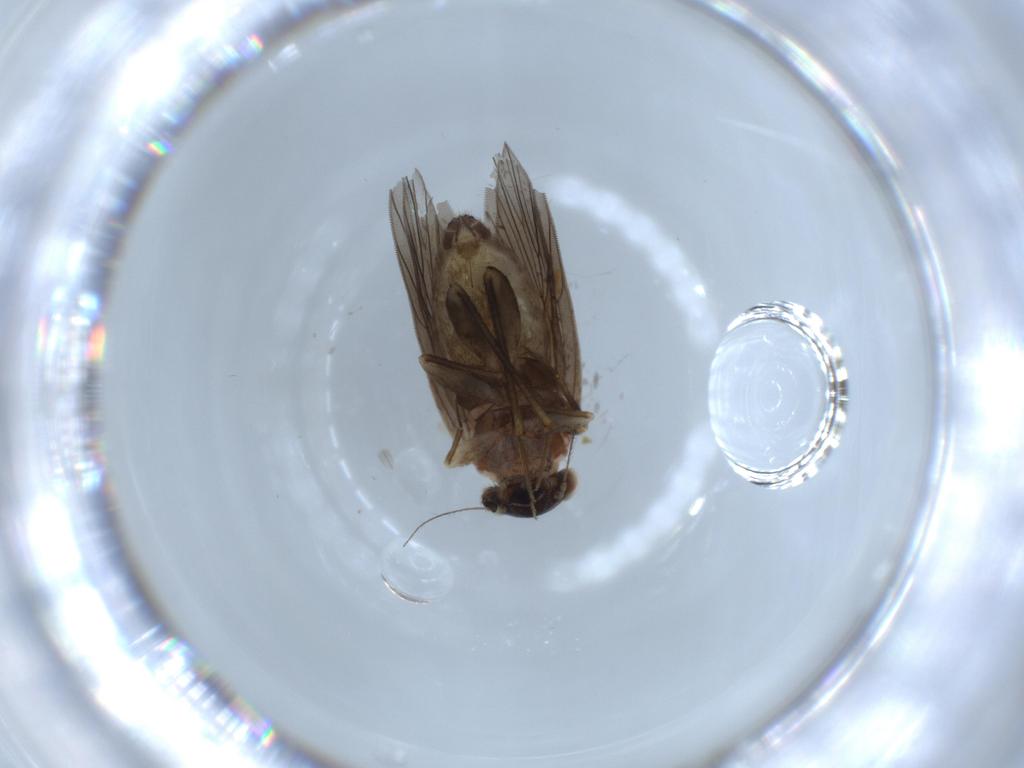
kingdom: Animalia
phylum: Arthropoda
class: Insecta
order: Psocodea
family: Lepidopsocidae
